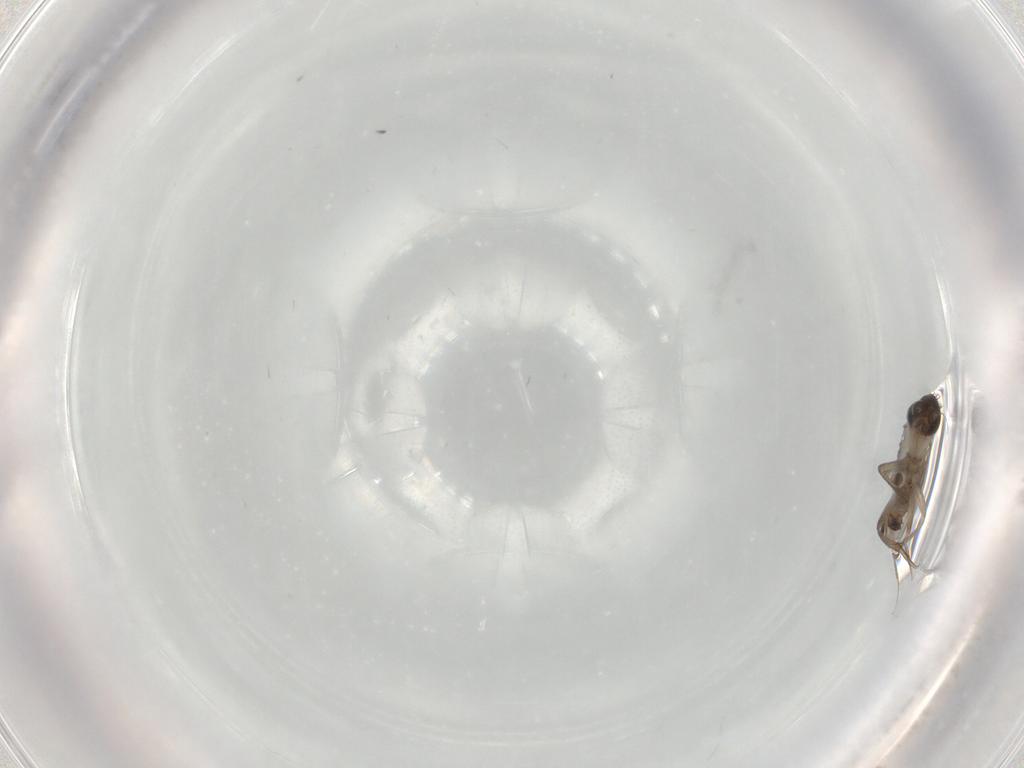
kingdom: Animalia
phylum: Arthropoda
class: Insecta
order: Diptera
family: Phoridae
